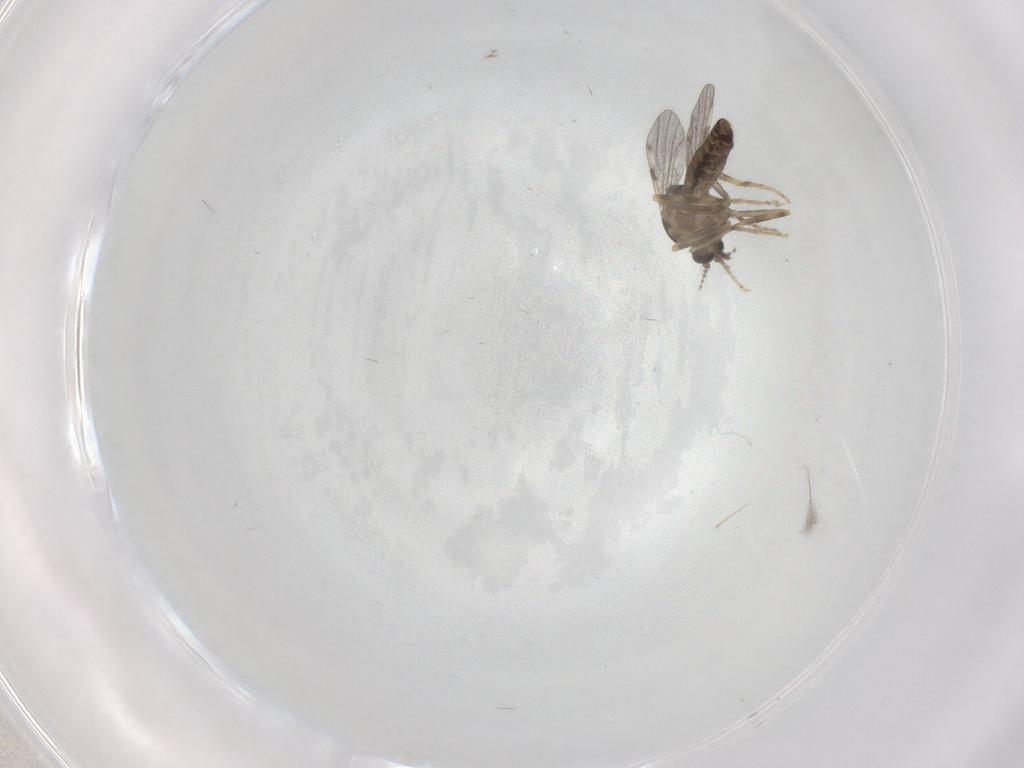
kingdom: Animalia
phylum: Arthropoda
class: Insecta
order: Diptera
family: Ceratopogonidae
